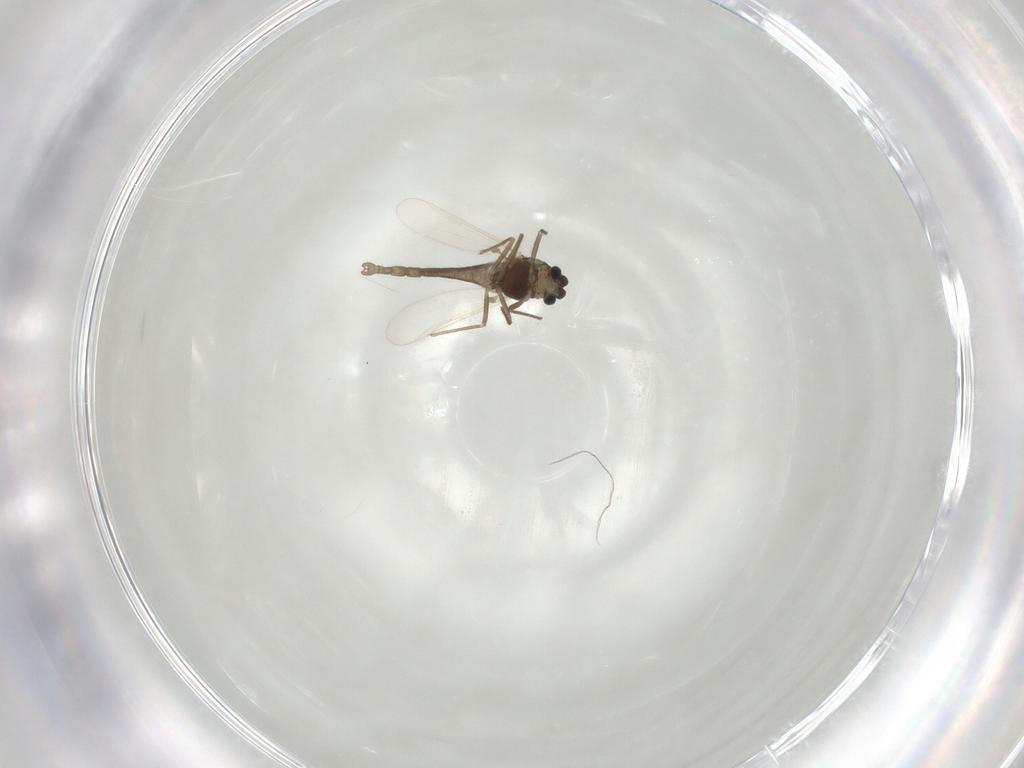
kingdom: Animalia
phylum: Arthropoda
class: Insecta
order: Diptera
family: Chironomidae
